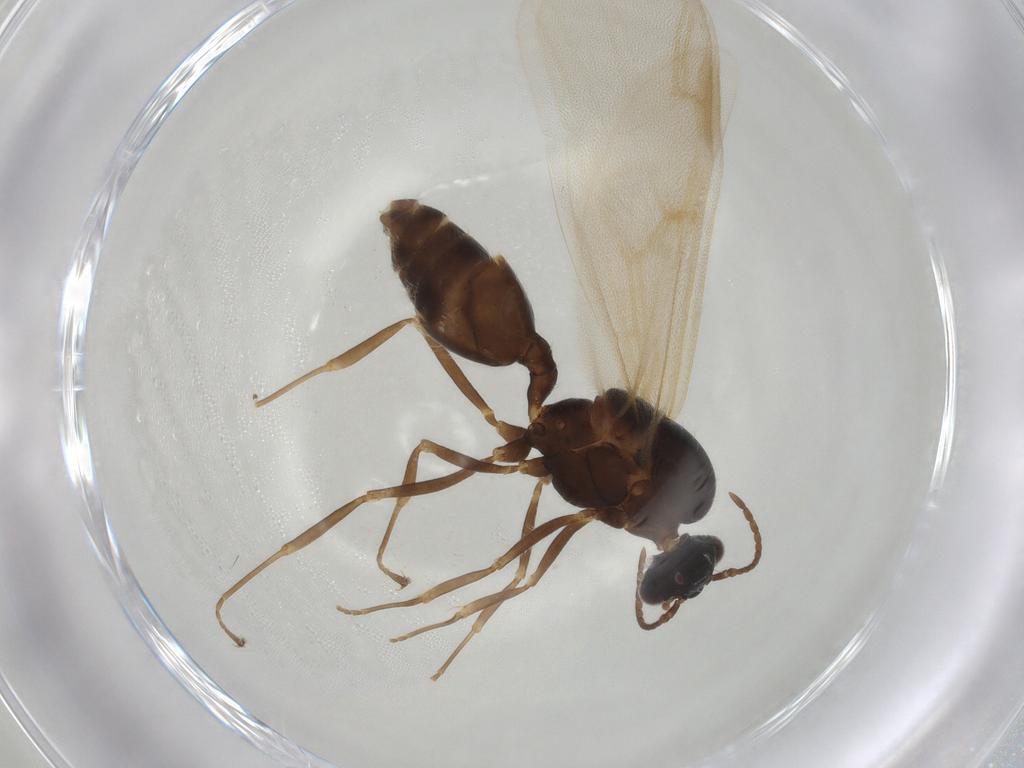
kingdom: Animalia
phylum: Arthropoda
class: Insecta
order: Hymenoptera
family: Formicidae
